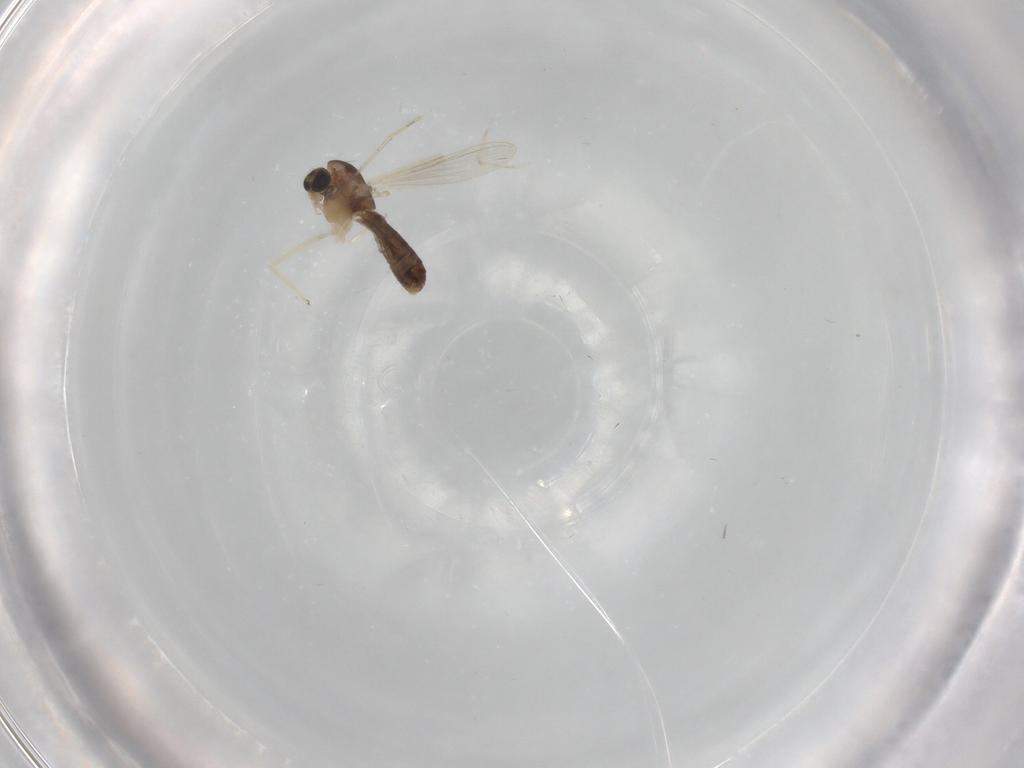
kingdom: Animalia
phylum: Arthropoda
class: Insecta
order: Diptera
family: Chironomidae
